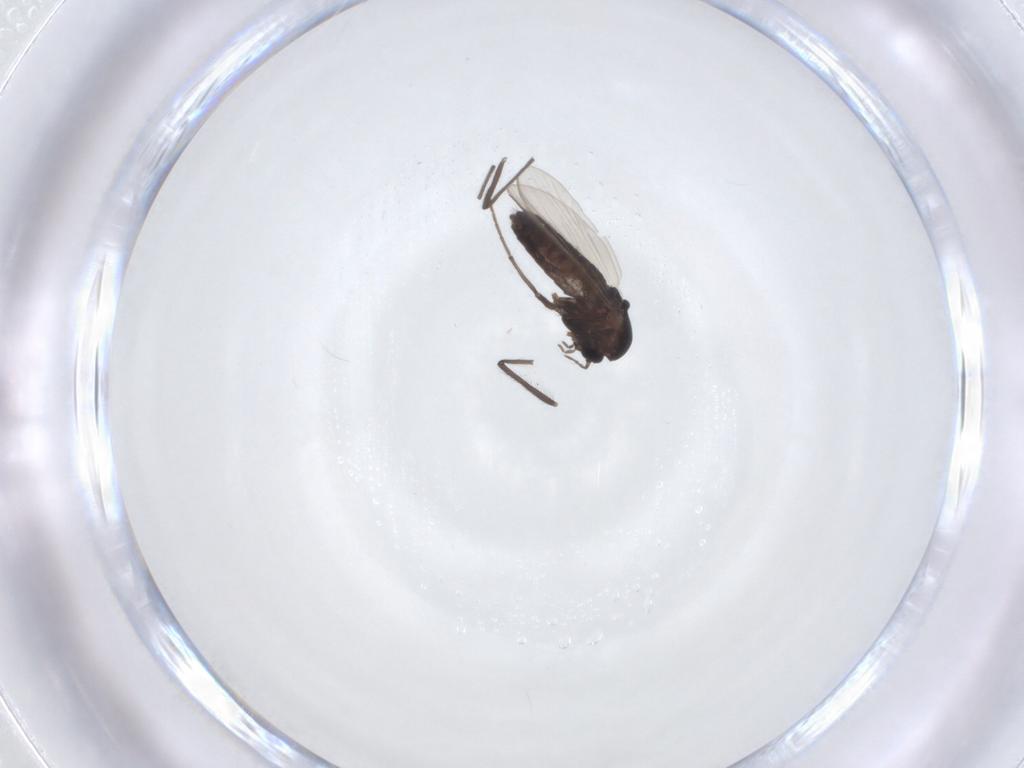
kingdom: Animalia
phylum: Arthropoda
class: Insecta
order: Diptera
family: Chironomidae
